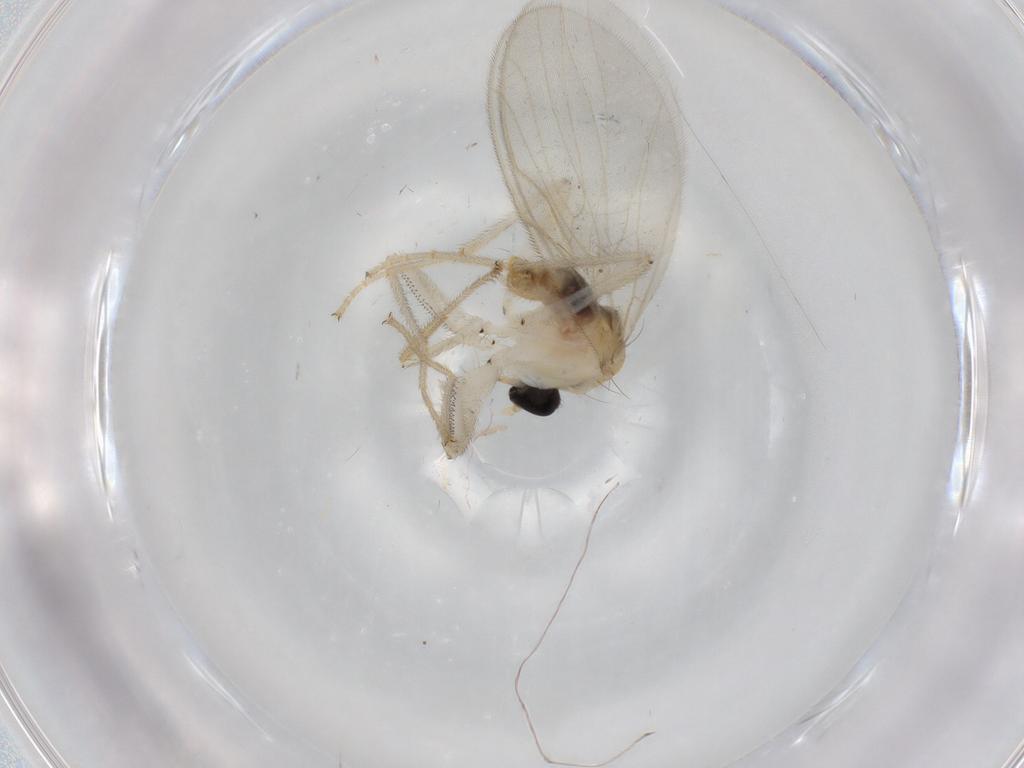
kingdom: Animalia
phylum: Arthropoda
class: Insecta
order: Diptera
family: Hybotidae
